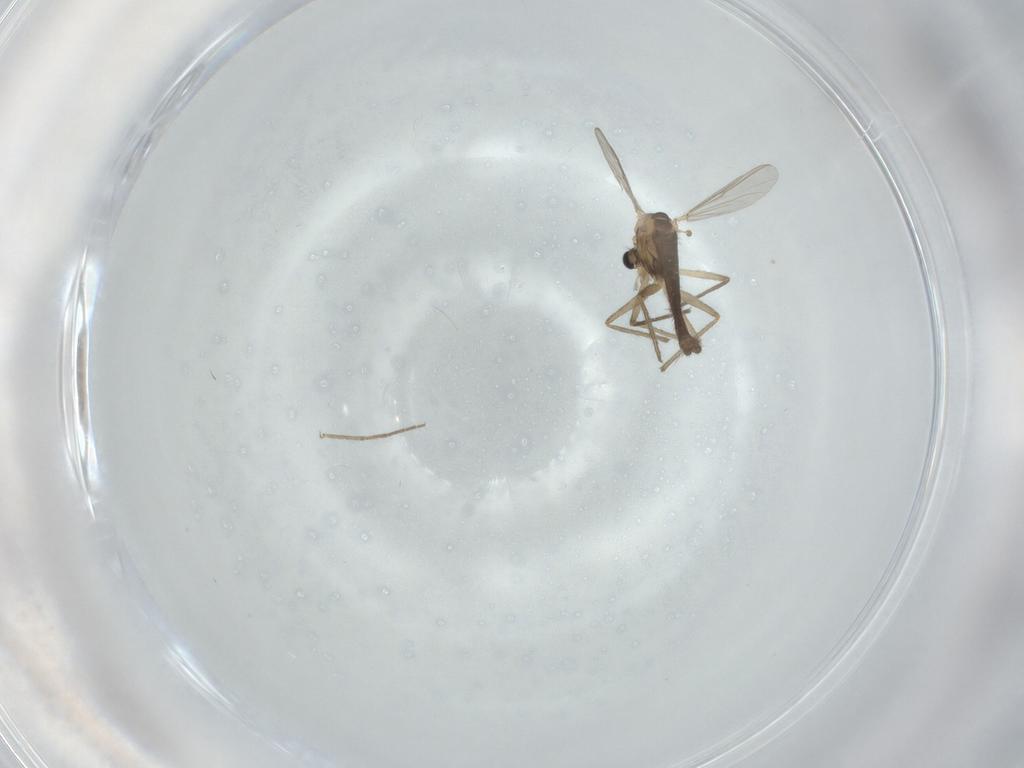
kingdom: Animalia
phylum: Arthropoda
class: Insecta
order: Diptera
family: Chironomidae
